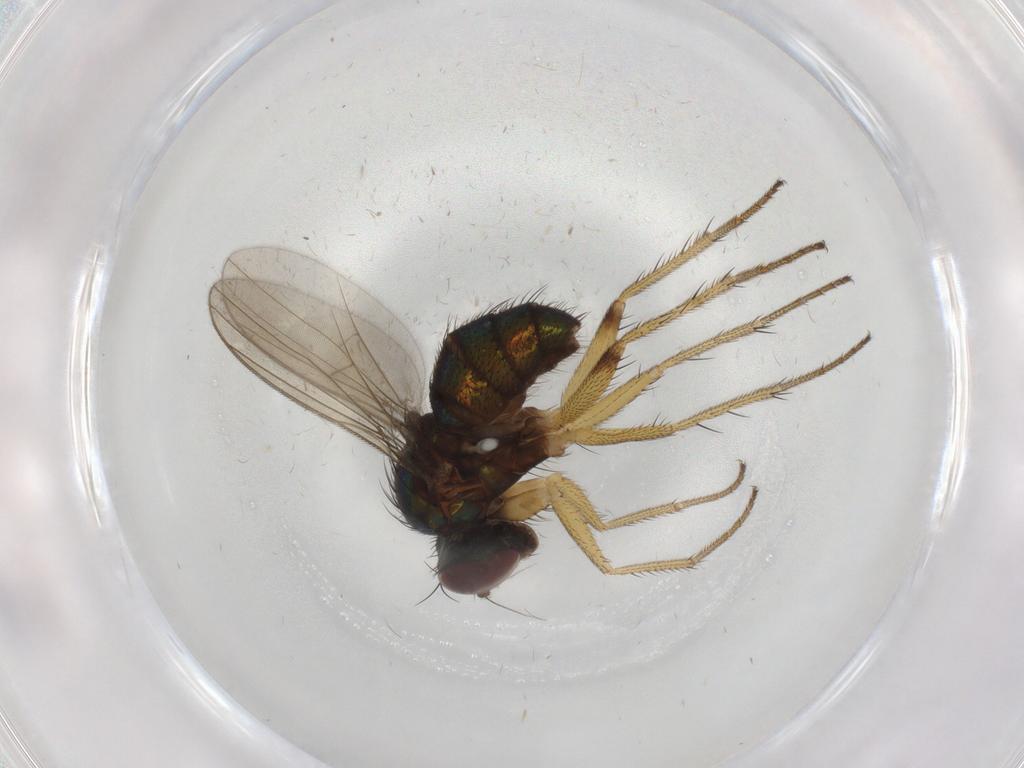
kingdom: Animalia
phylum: Arthropoda
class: Insecta
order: Diptera
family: Dolichopodidae
